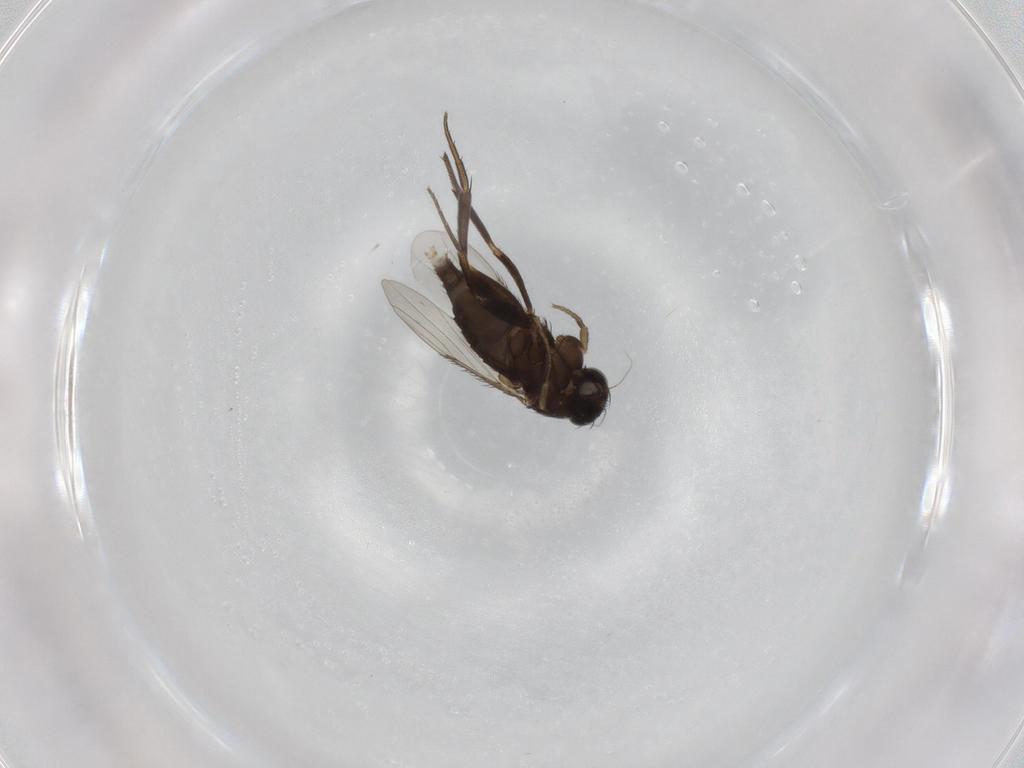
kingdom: Animalia
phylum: Arthropoda
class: Insecta
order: Diptera
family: Phoridae
